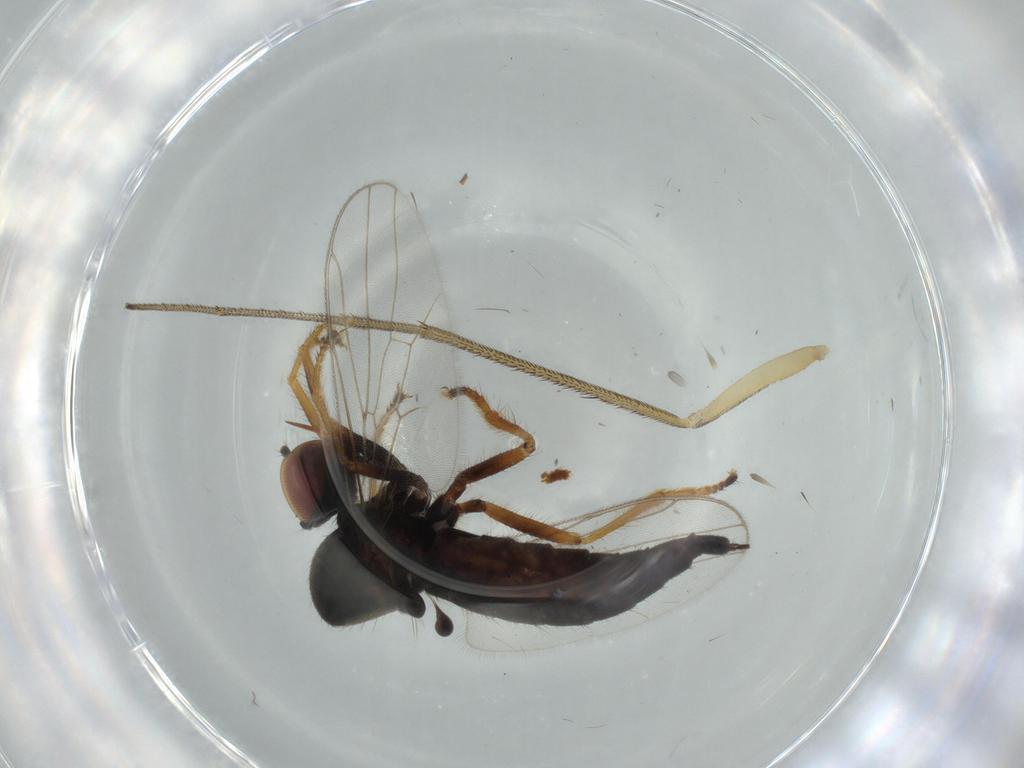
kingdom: Animalia
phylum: Arthropoda
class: Insecta
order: Diptera
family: Cecidomyiidae
